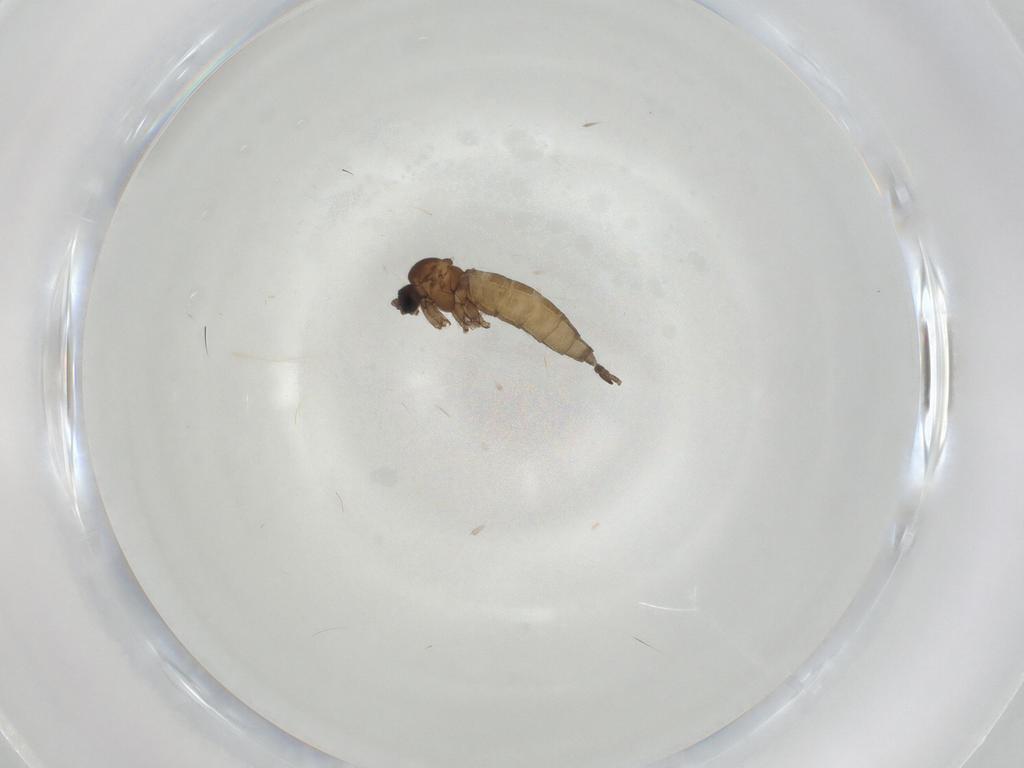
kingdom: Animalia
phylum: Arthropoda
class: Insecta
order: Diptera
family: Sciaridae
